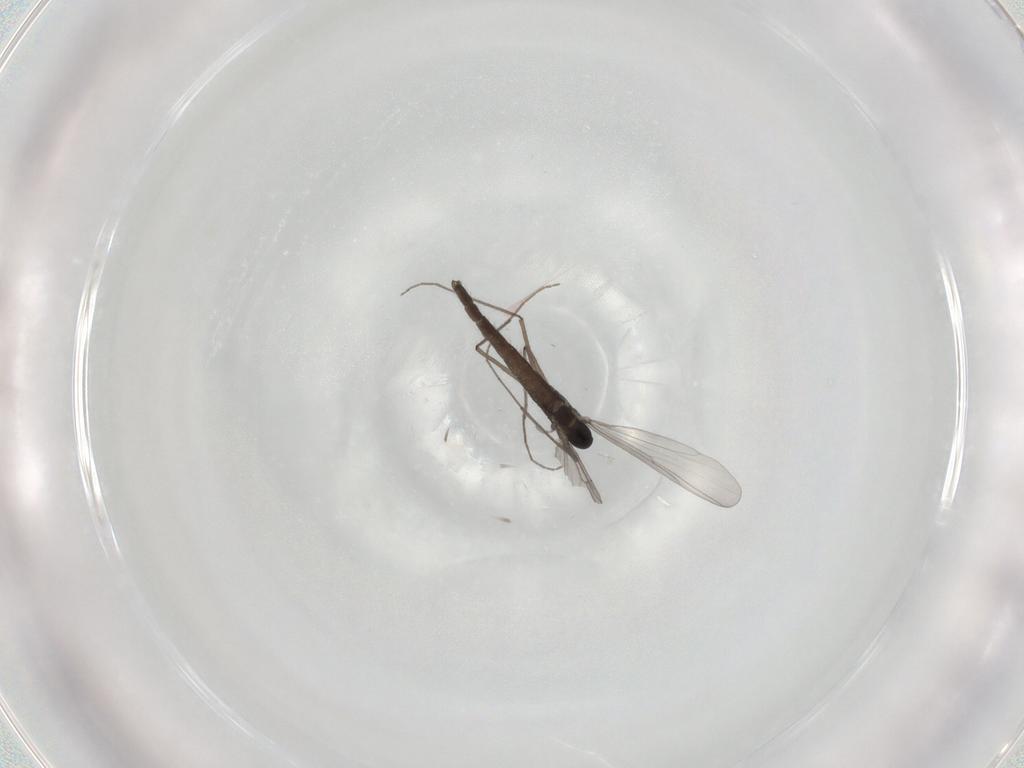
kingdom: Animalia
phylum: Arthropoda
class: Insecta
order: Diptera
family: Chironomidae
